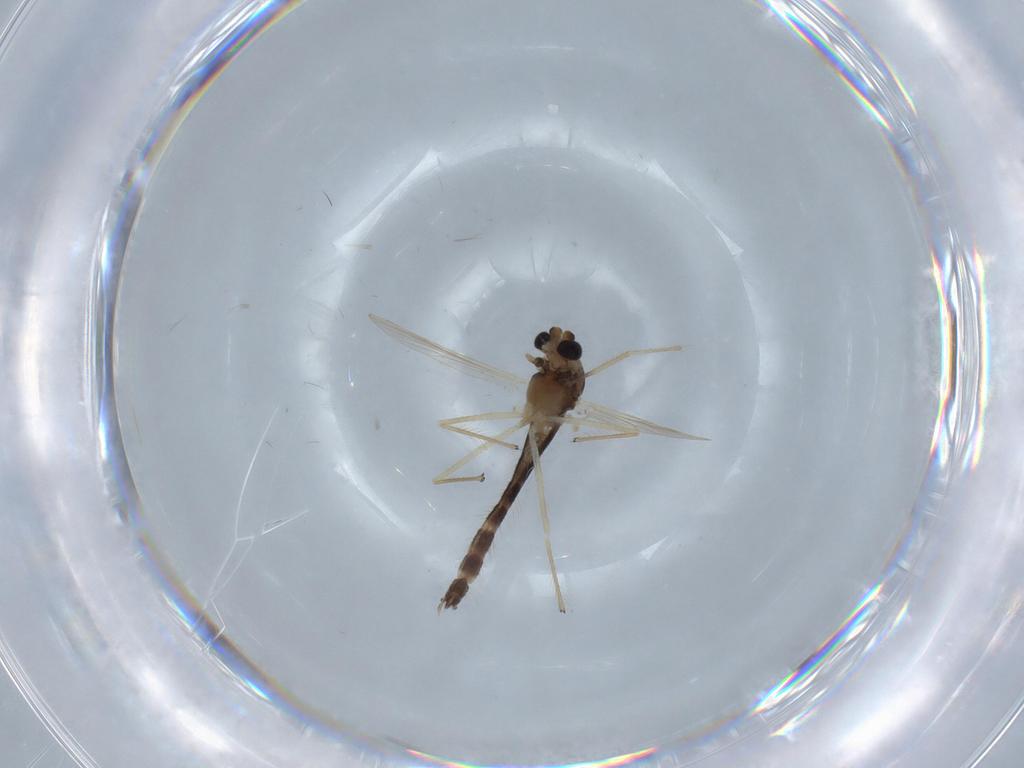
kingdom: Animalia
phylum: Arthropoda
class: Insecta
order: Diptera
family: Chironomidae
